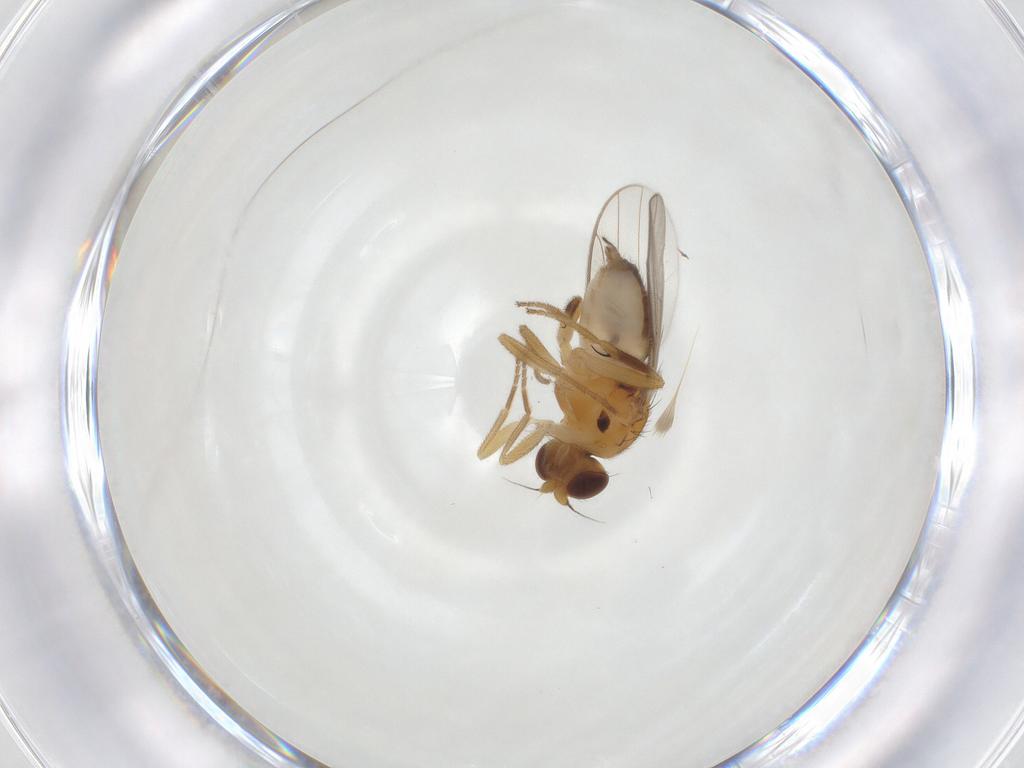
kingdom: Animalia
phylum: Arthropoda
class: Insecta
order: Diptera
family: Chloropidae
